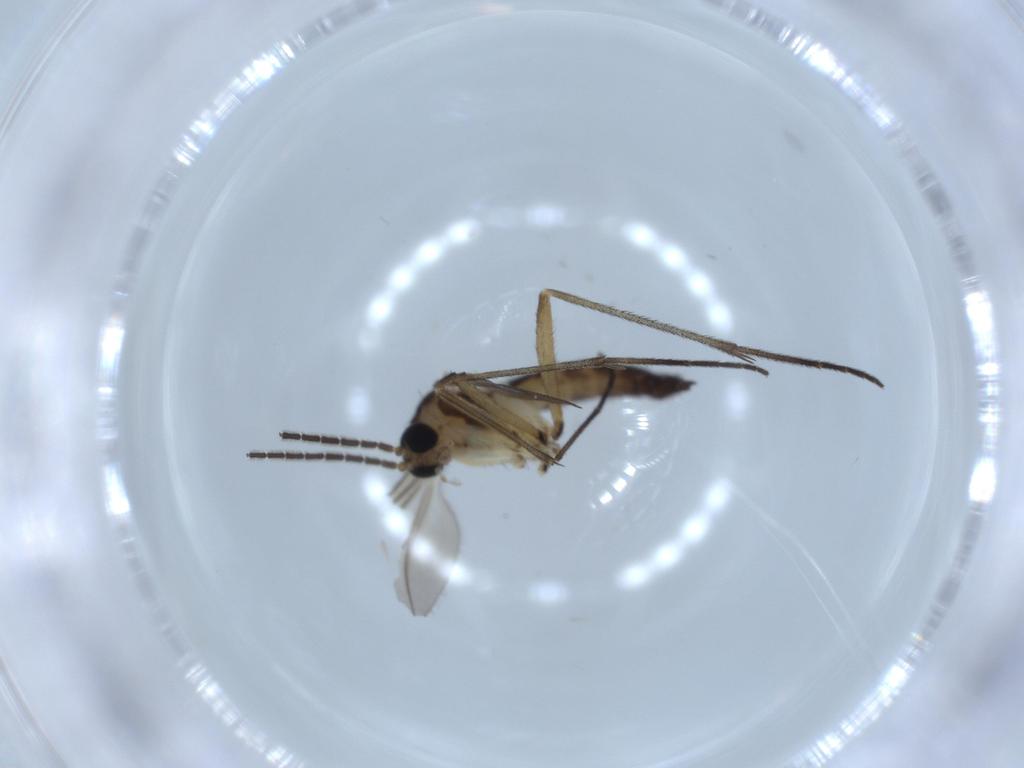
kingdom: Animalia
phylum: Arthropoda
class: Insecta
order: Diptera
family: Sciaridae
